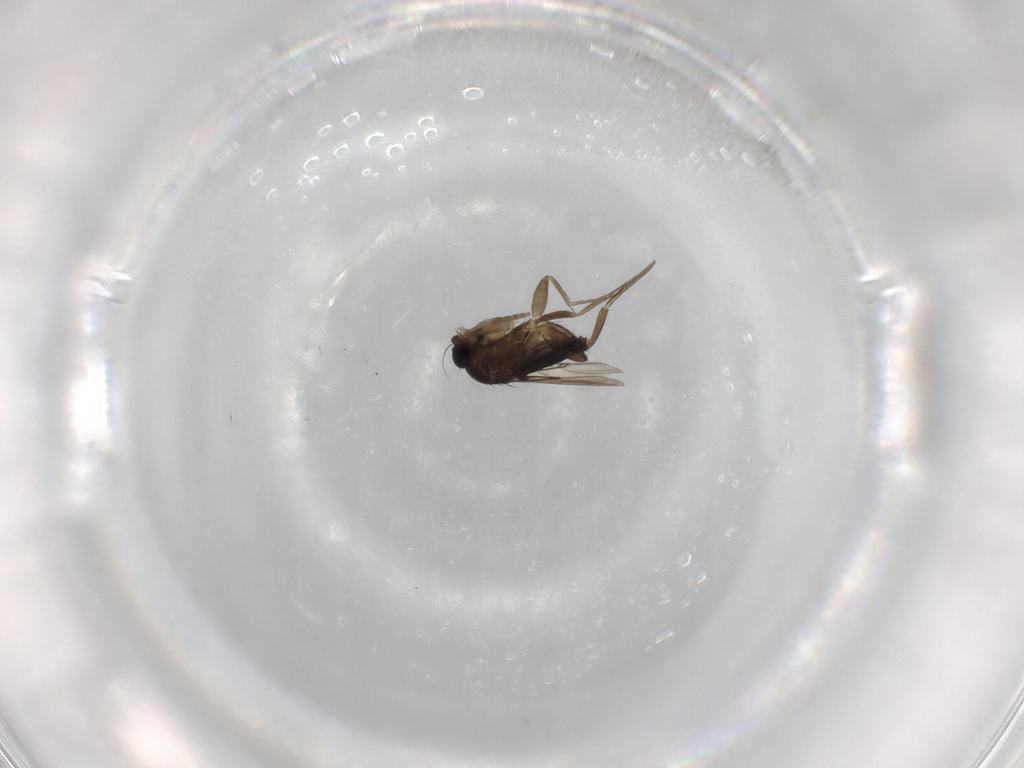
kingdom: Animalia
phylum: Arthropoda
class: Insecta
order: Diptera
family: Phoridae
